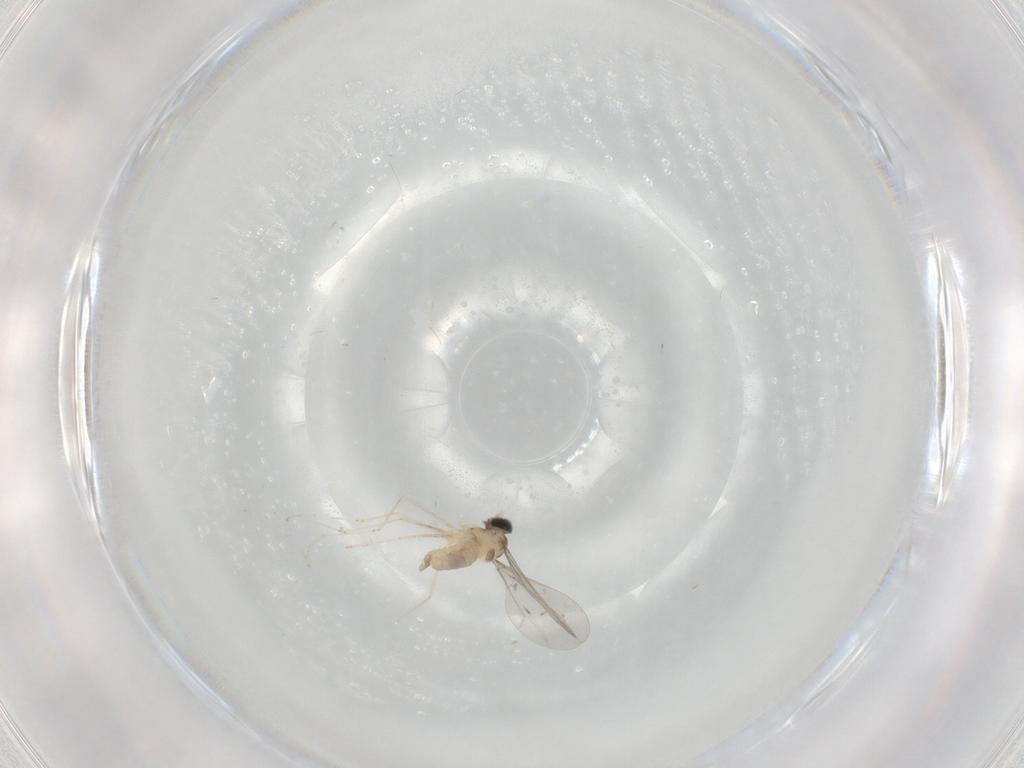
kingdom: Animalia
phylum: Arthropoda
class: Insecta
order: Diptera
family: Cecidomyiidae
